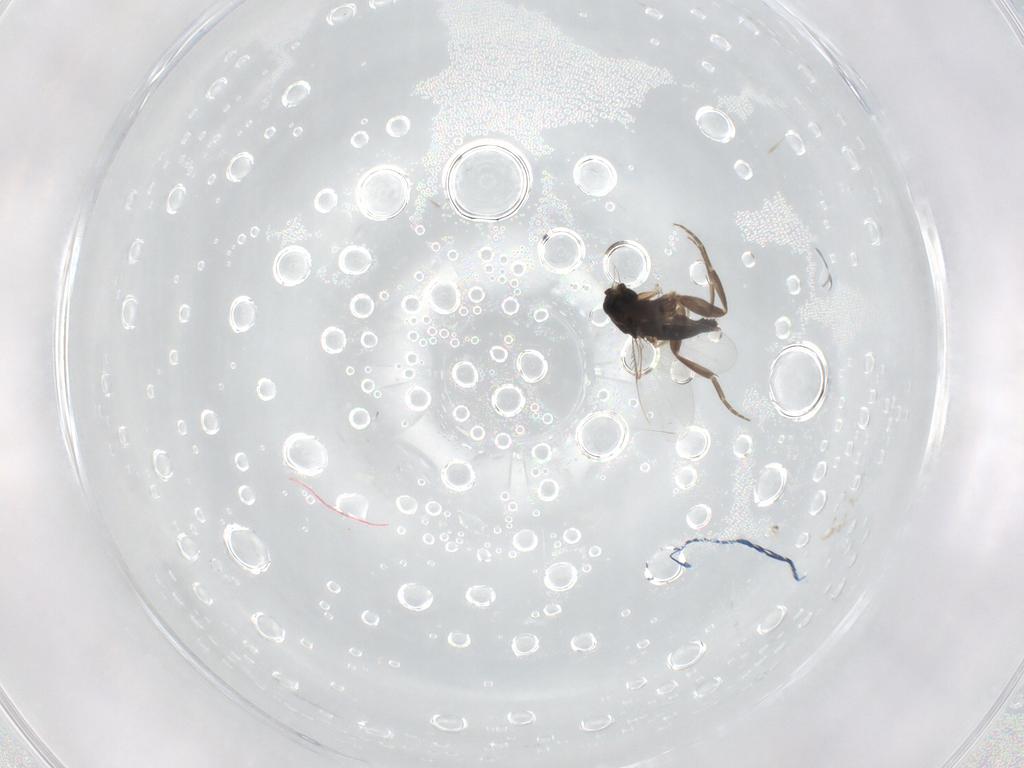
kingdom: Animalia
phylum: Arthropoda
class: Insecta
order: Diptera
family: Phoridae
